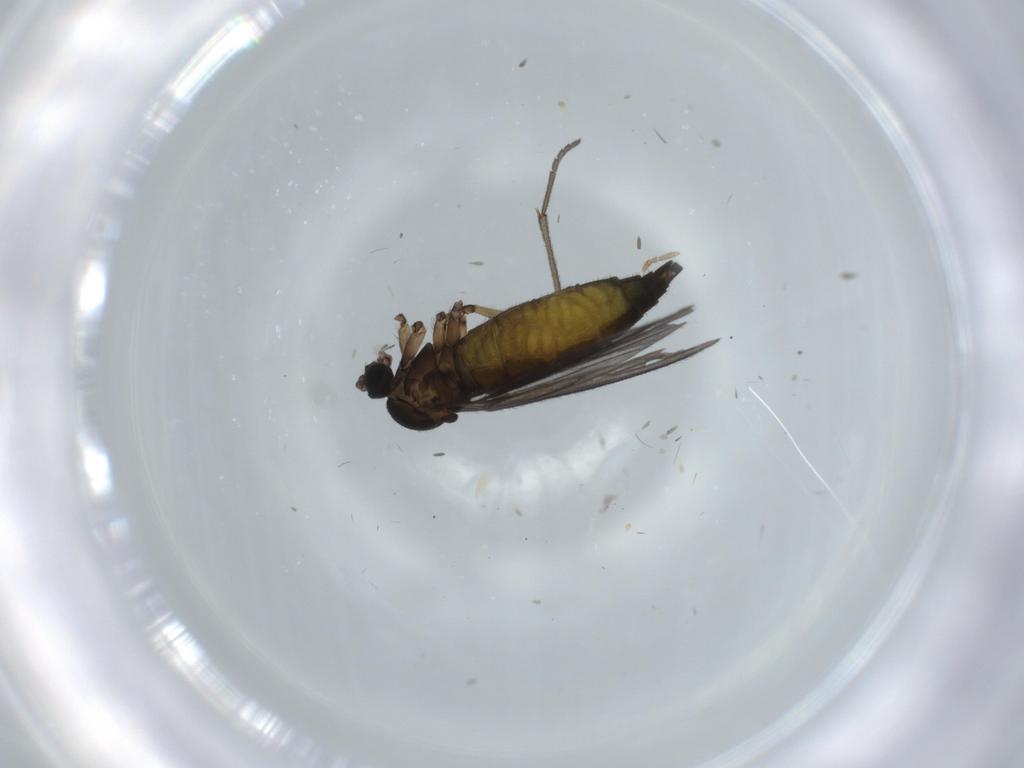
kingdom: Animalia
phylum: Arthropoda
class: Insecta
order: Diptera
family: Sciaridae
